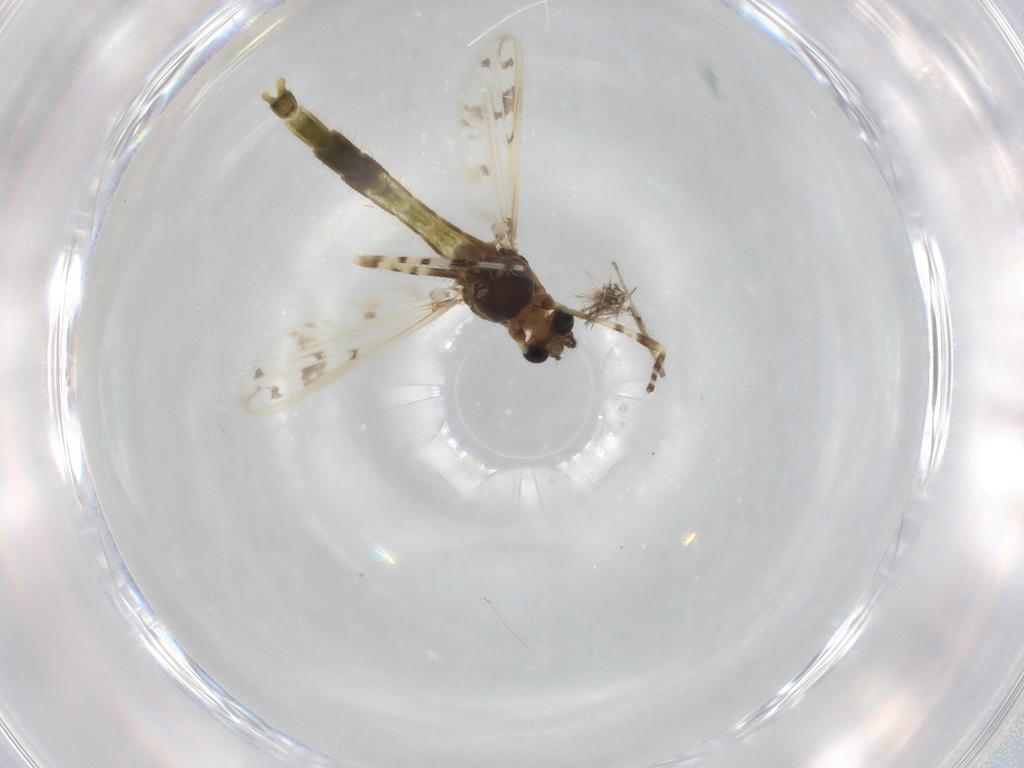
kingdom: Animalia
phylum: Arthropoda
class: Insecta
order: Diptera
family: Chironomidae
